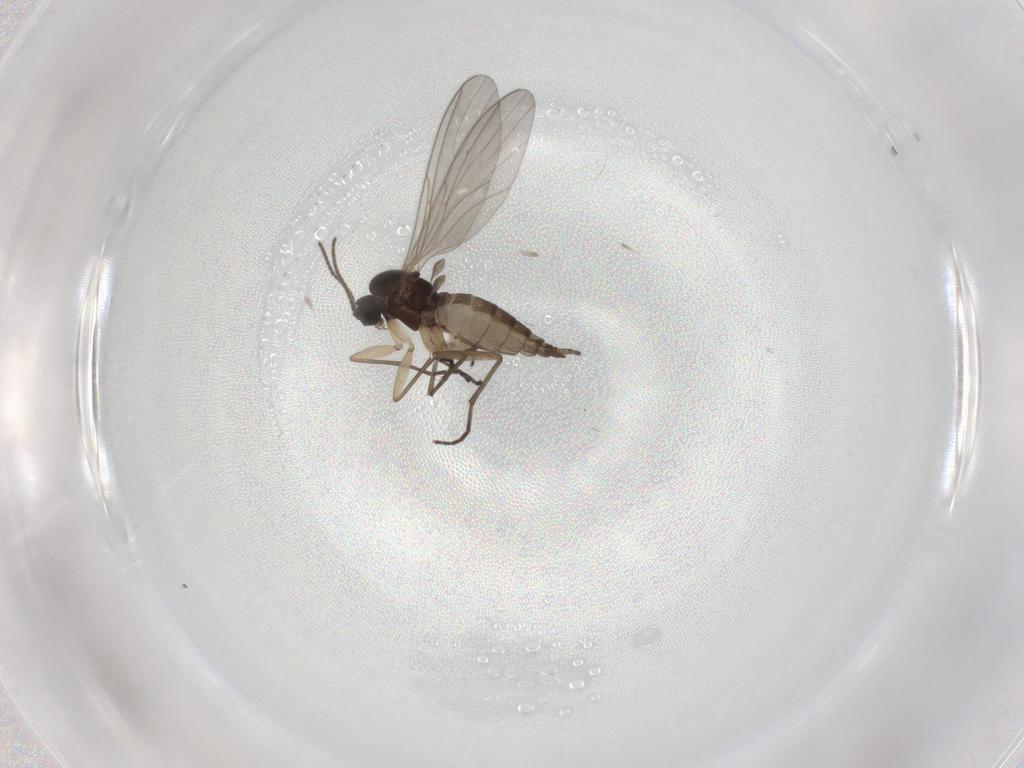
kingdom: Animalia
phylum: Arthropoda
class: Insecta
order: Diptera
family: Sciaridae
